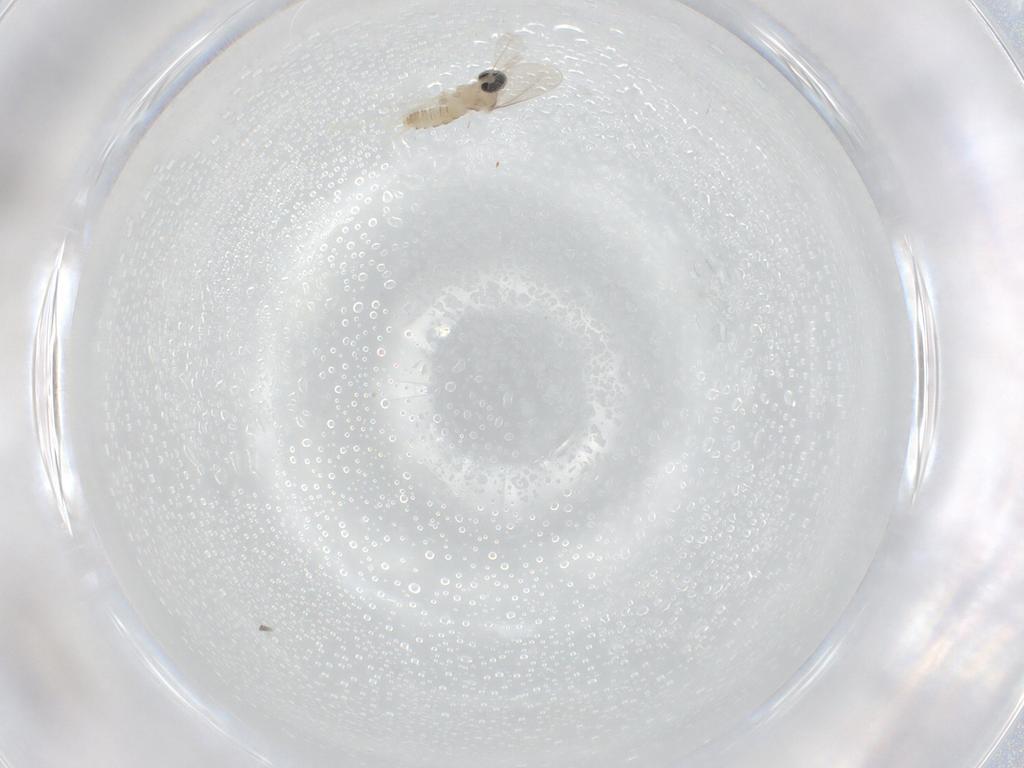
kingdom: Animalia
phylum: Arthropoda
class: Insecta
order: Diptera
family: Cecidomyiidae
